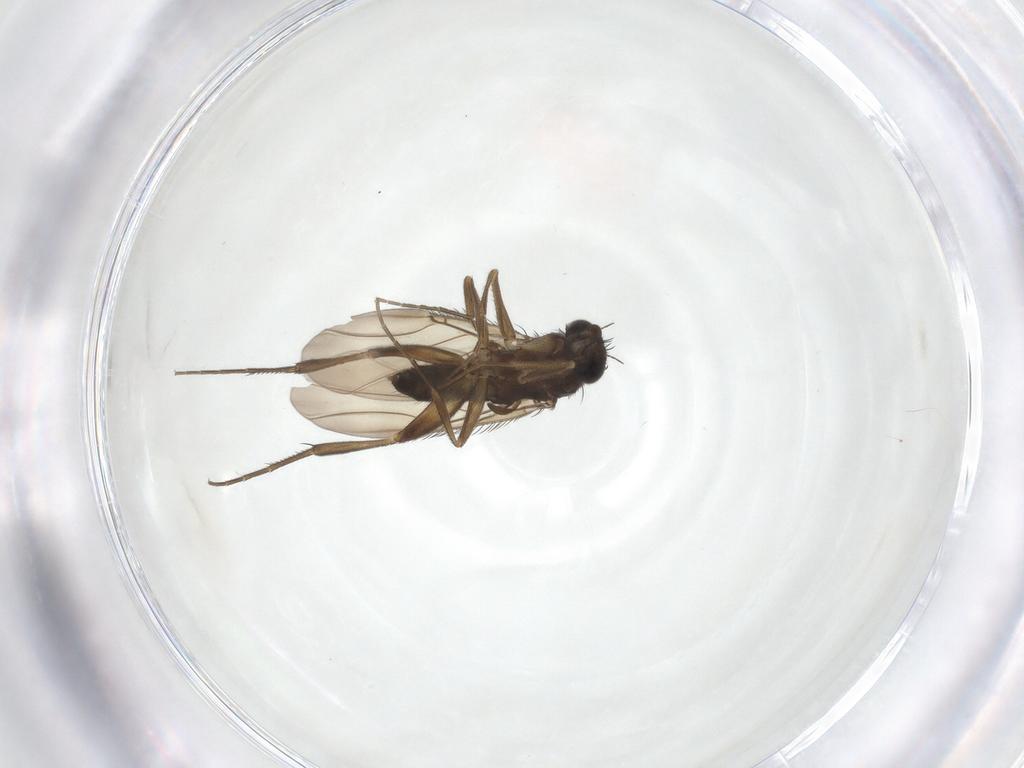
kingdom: Animalia
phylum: Arthropoda
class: Insecta
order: Diptera
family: Phoridae
